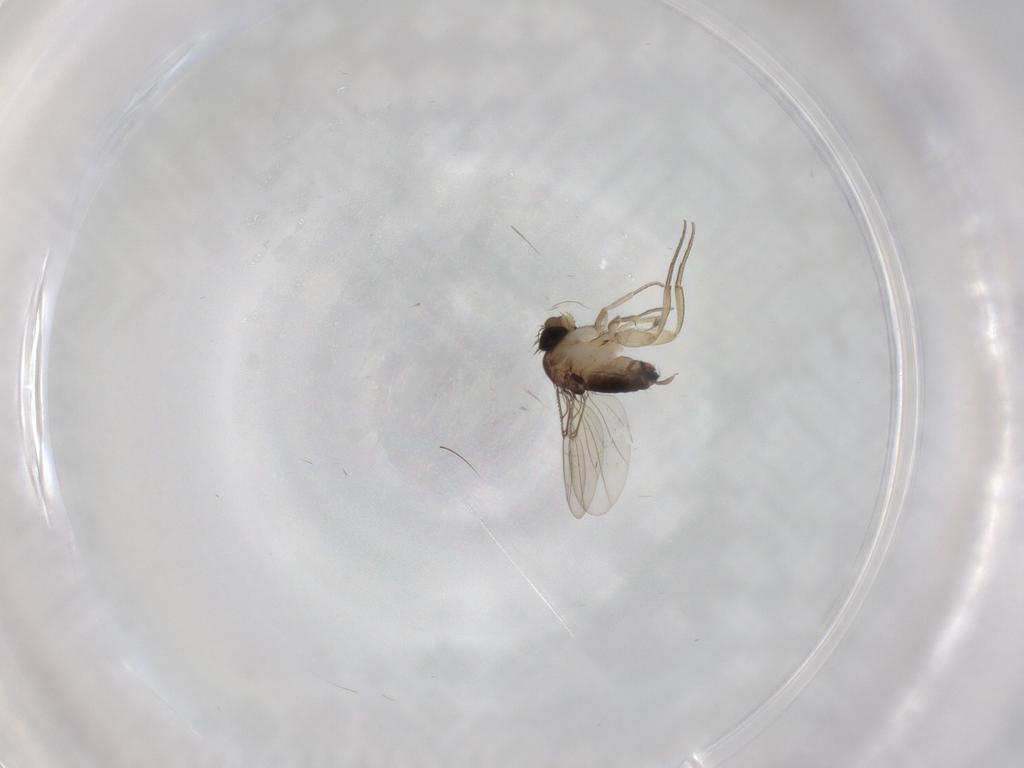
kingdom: Animalia
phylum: Arthropoda
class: Insecta
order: Diptera
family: Phoridae
